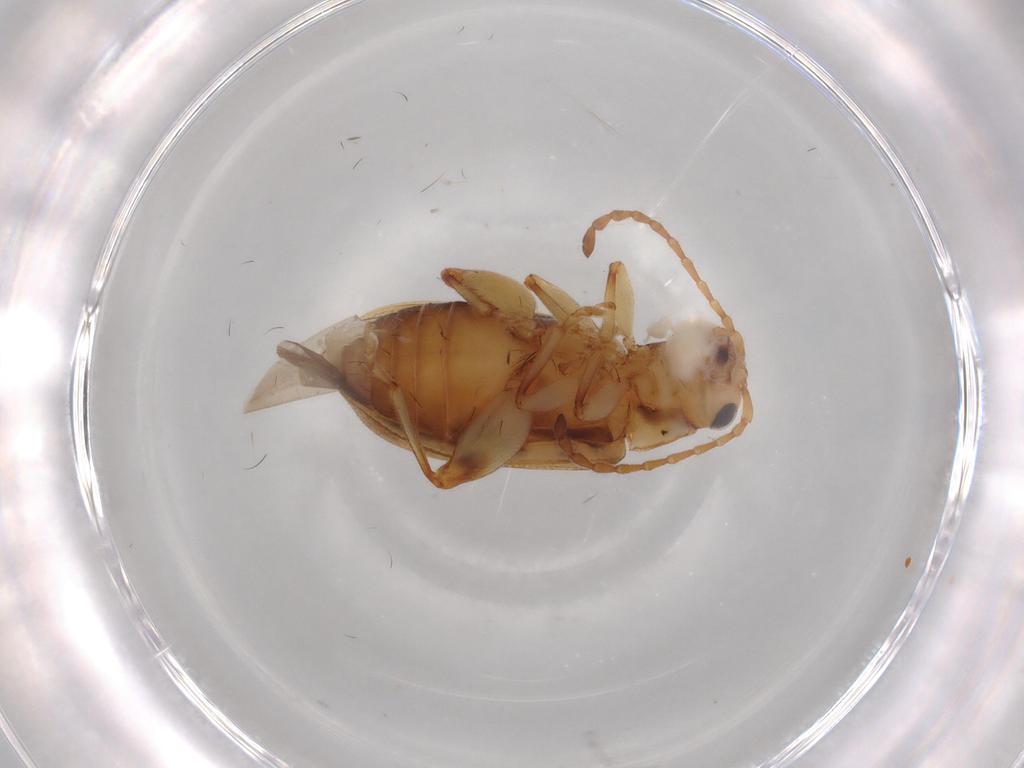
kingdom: Animalia
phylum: Arthropoda
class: Insecta
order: Coleoptera
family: Chrysomelidae
